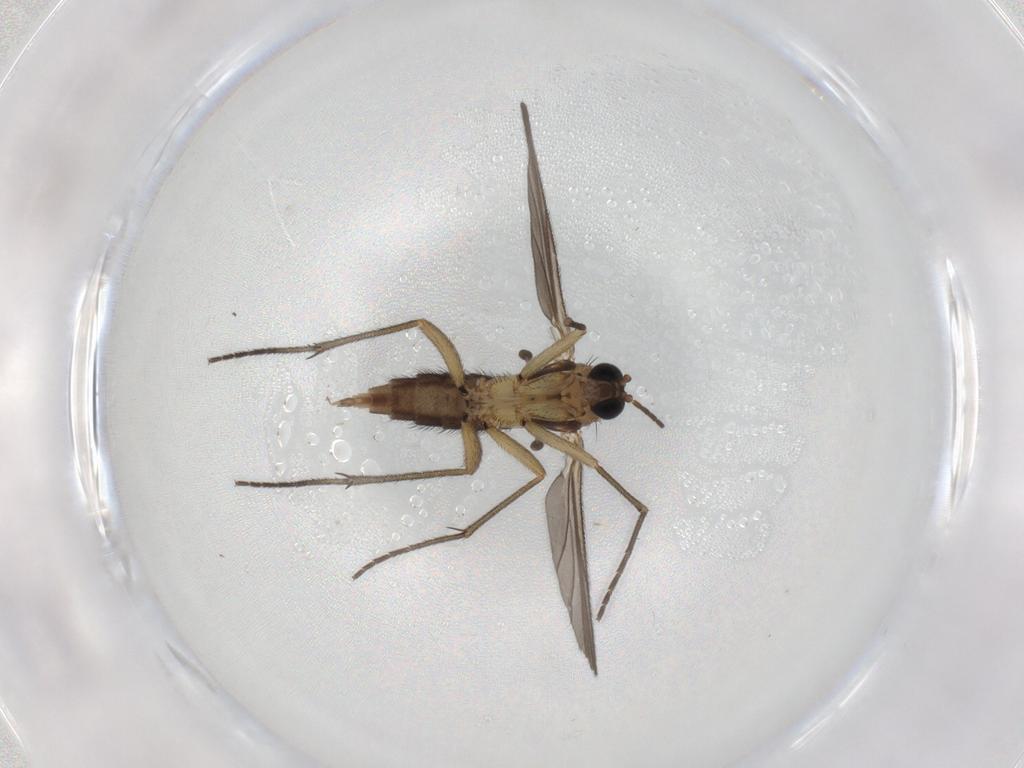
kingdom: Animalia
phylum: Arthropoda
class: Insecta
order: Diptera
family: Sciaridae
